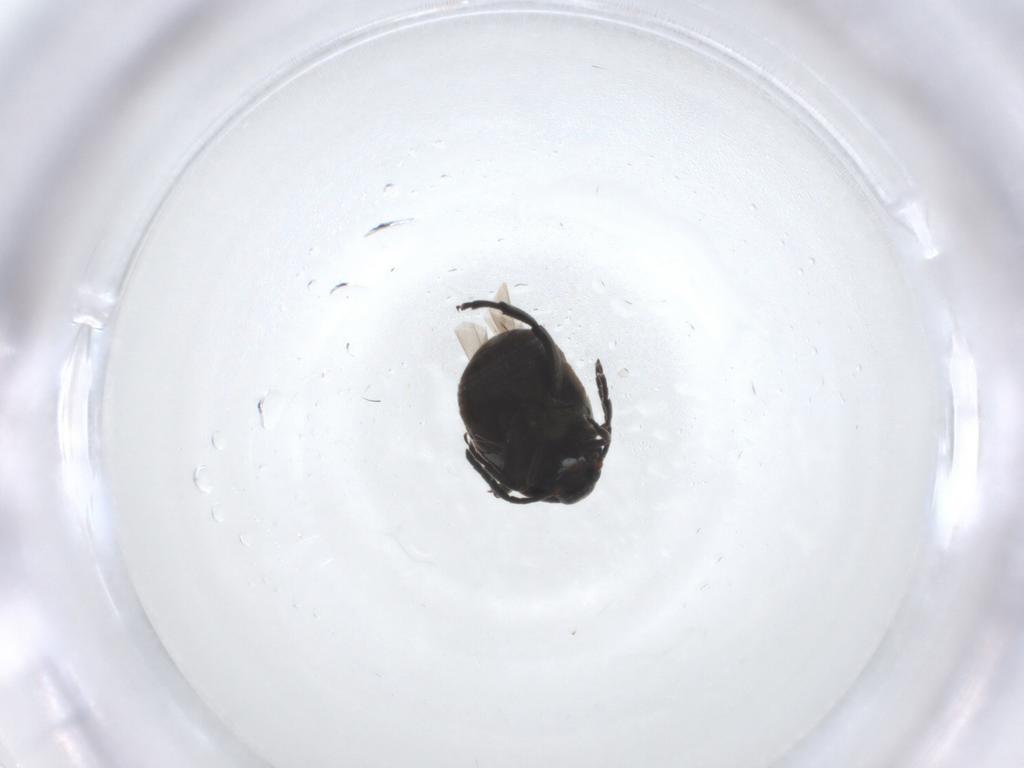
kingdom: Animalia
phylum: Arthropoda
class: Insecta
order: Coleoptera
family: Chrysomelidae
